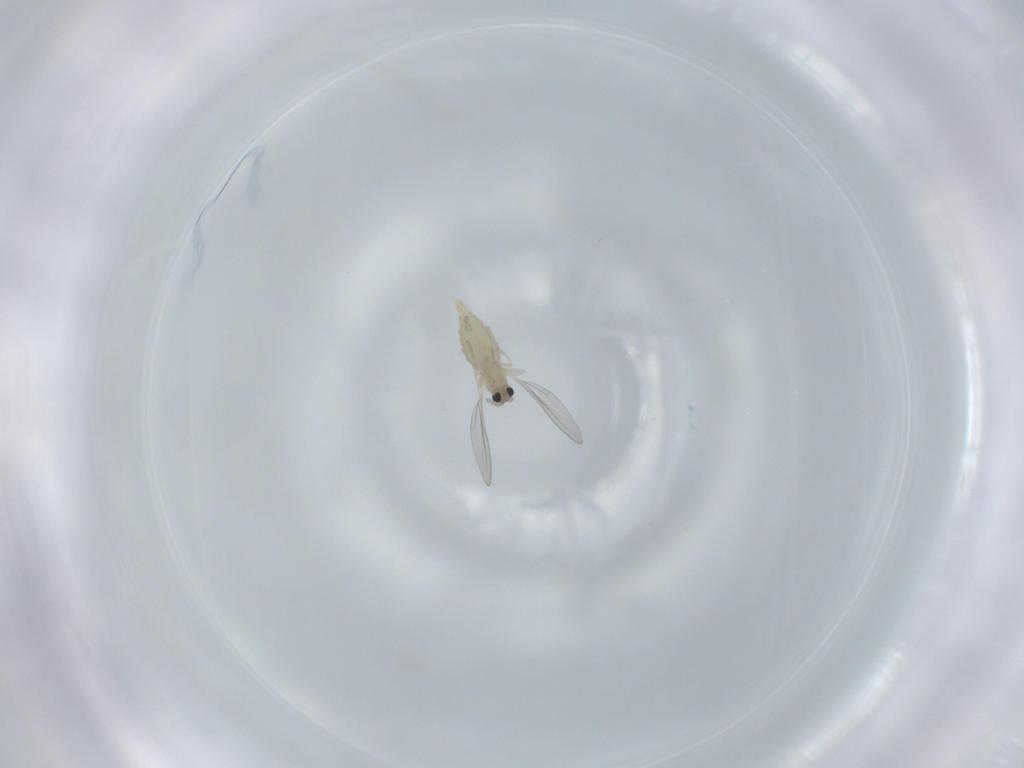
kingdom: Animalia
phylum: Arthropoda
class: Insecta
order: Diptera
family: Cecidomyiidae
